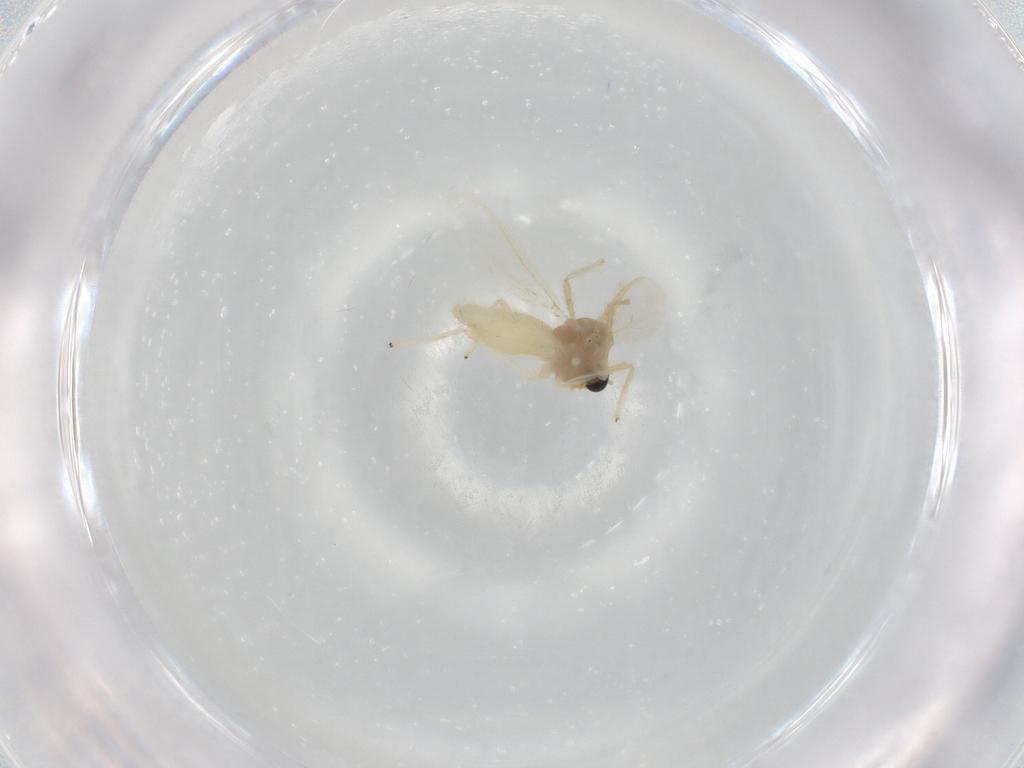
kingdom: Animalia
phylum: Arthropoda
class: Insecta
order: Diptera
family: Chironomidae
